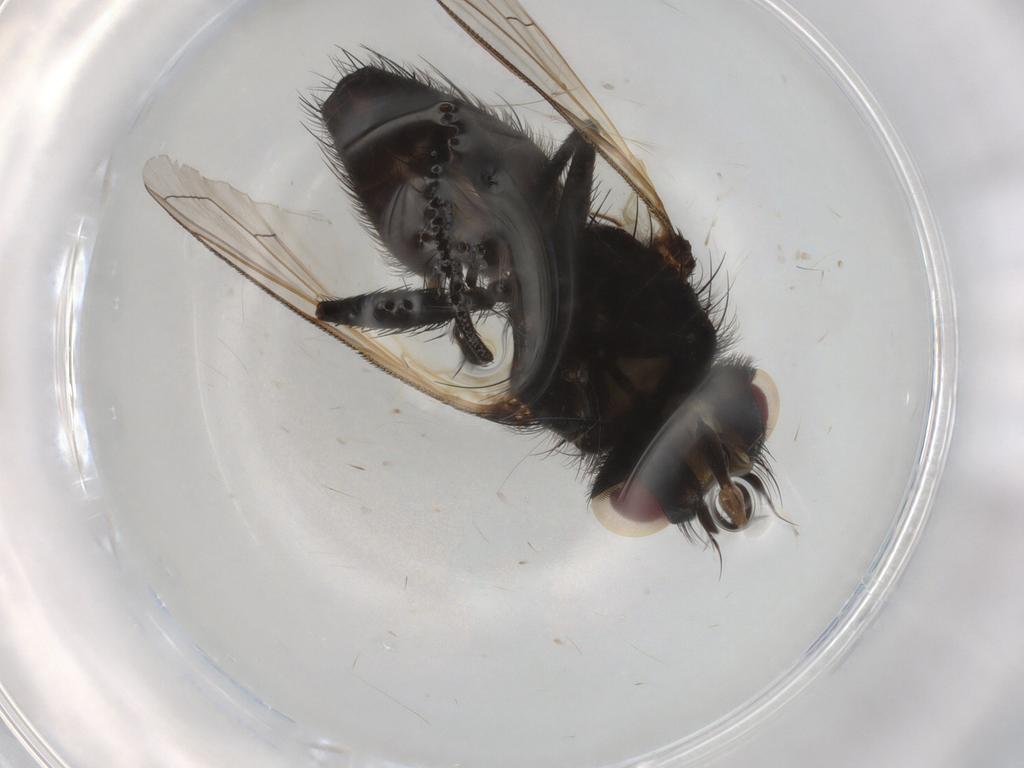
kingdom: Animalia
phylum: Arthropoda
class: Insecta
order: Diptera
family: Tachinidae
